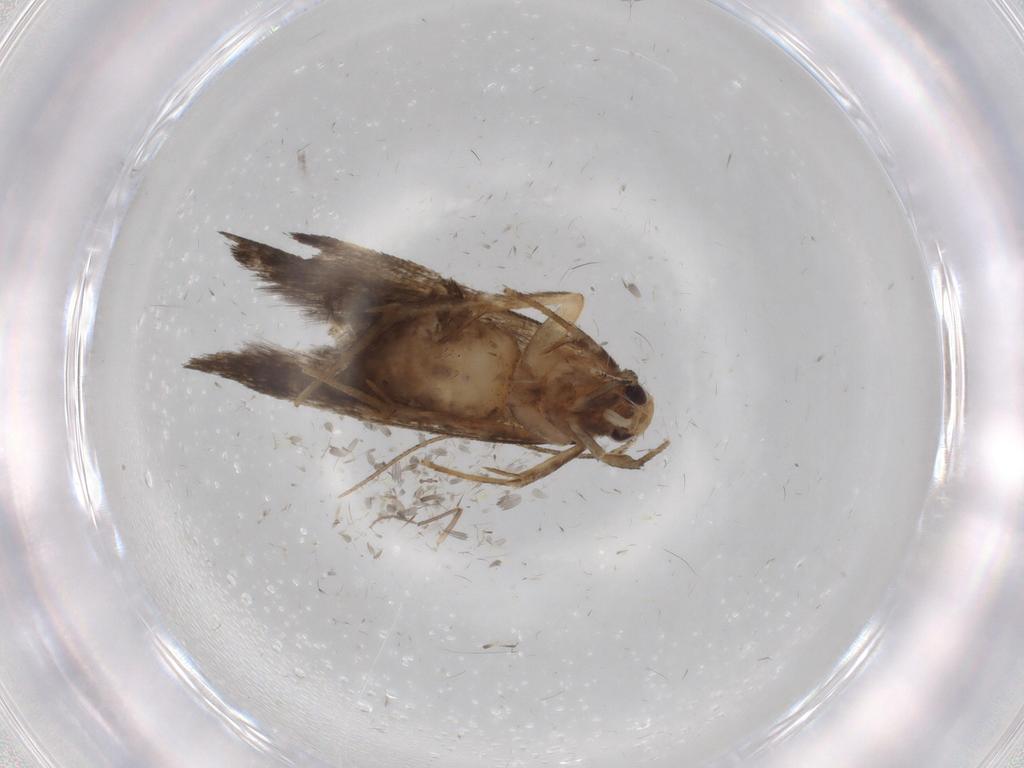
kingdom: Animalia
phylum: Arthropoda
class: Insecta
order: Lepidoptera
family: Cosmopterigidae
